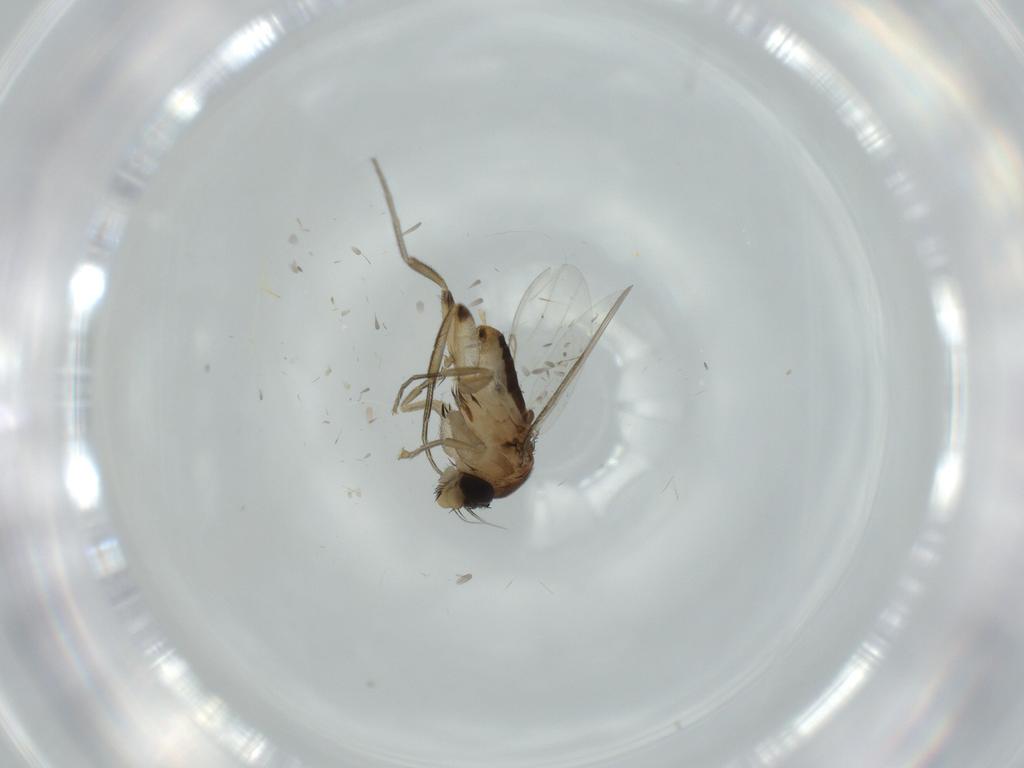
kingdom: Animalia
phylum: Arthropoda
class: Insecta
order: Diptera
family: Phoridae
